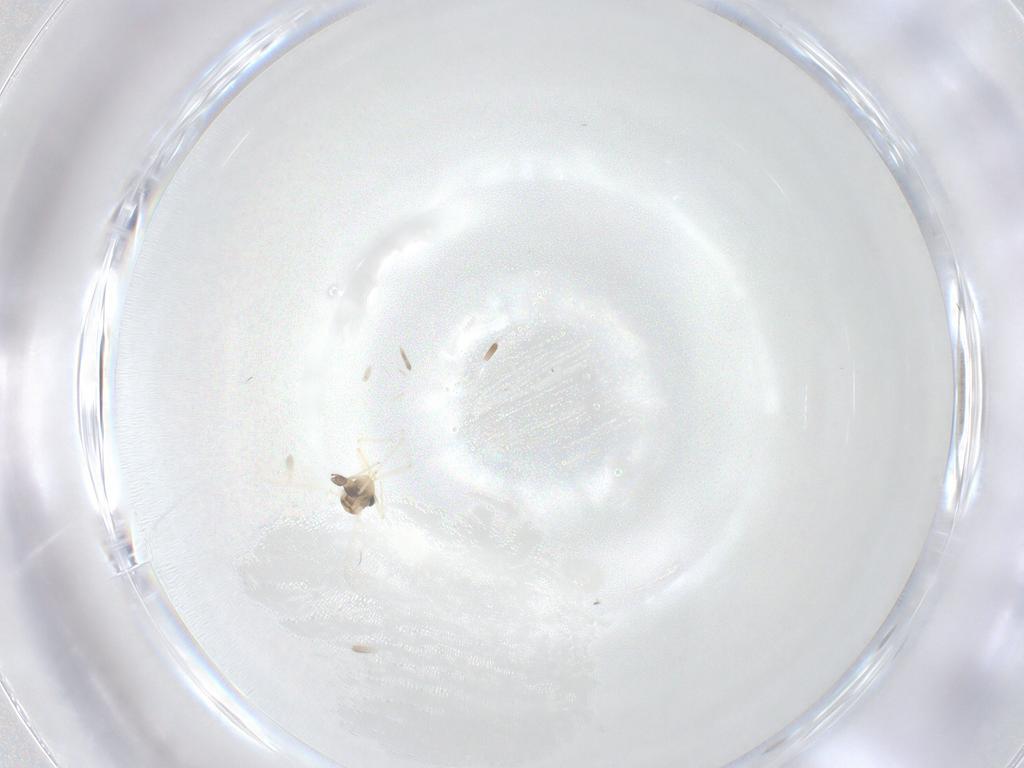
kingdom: Animalia
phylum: Arthropoda
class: Insecta
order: Diptera
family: Chironomidae
